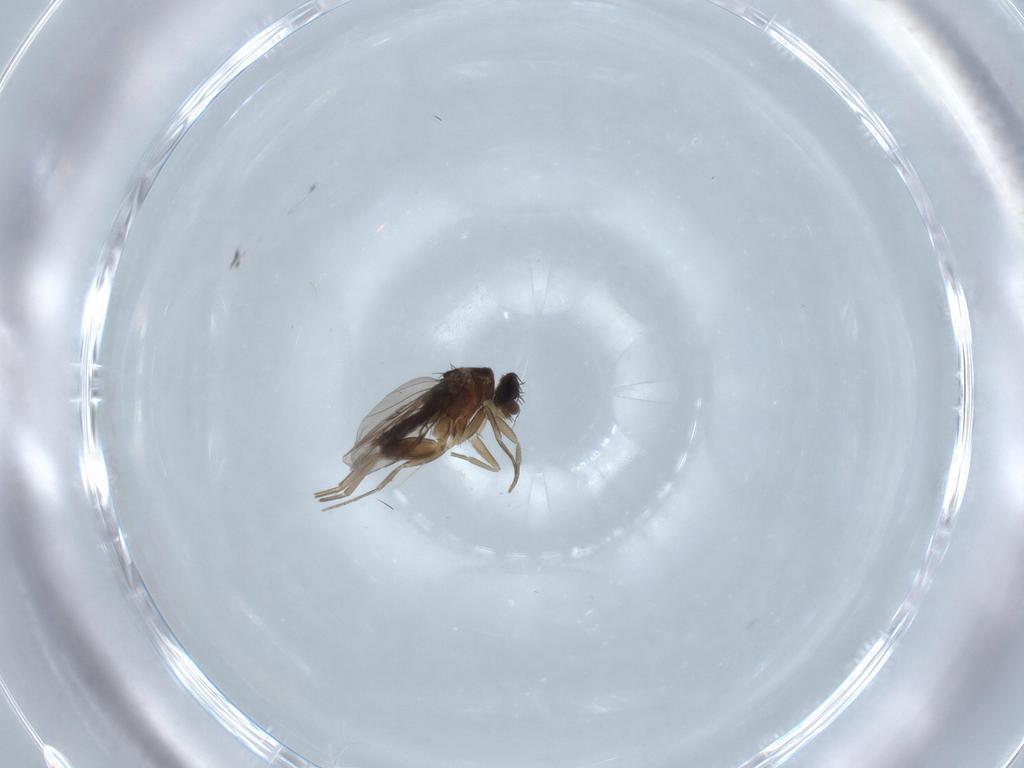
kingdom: Animalia
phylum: Arthropoda
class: Insecta
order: Diptera
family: Phoridae
